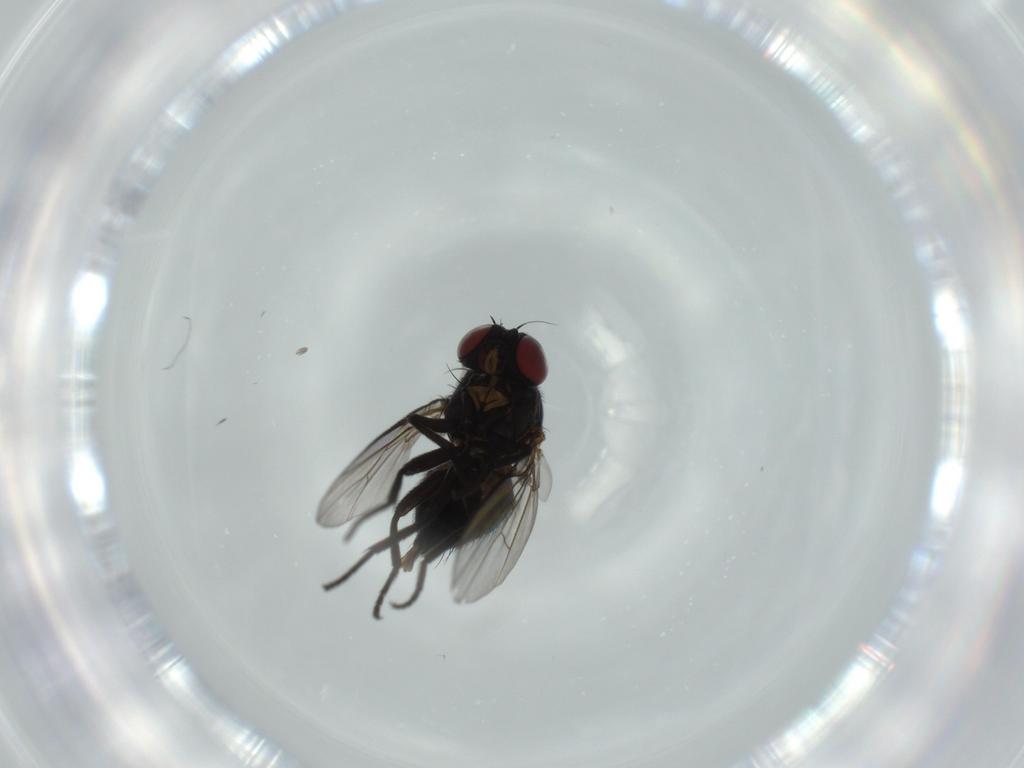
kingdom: Animalia
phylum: Arthropoda
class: Insecta
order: Diptera
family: Agromyzidae
